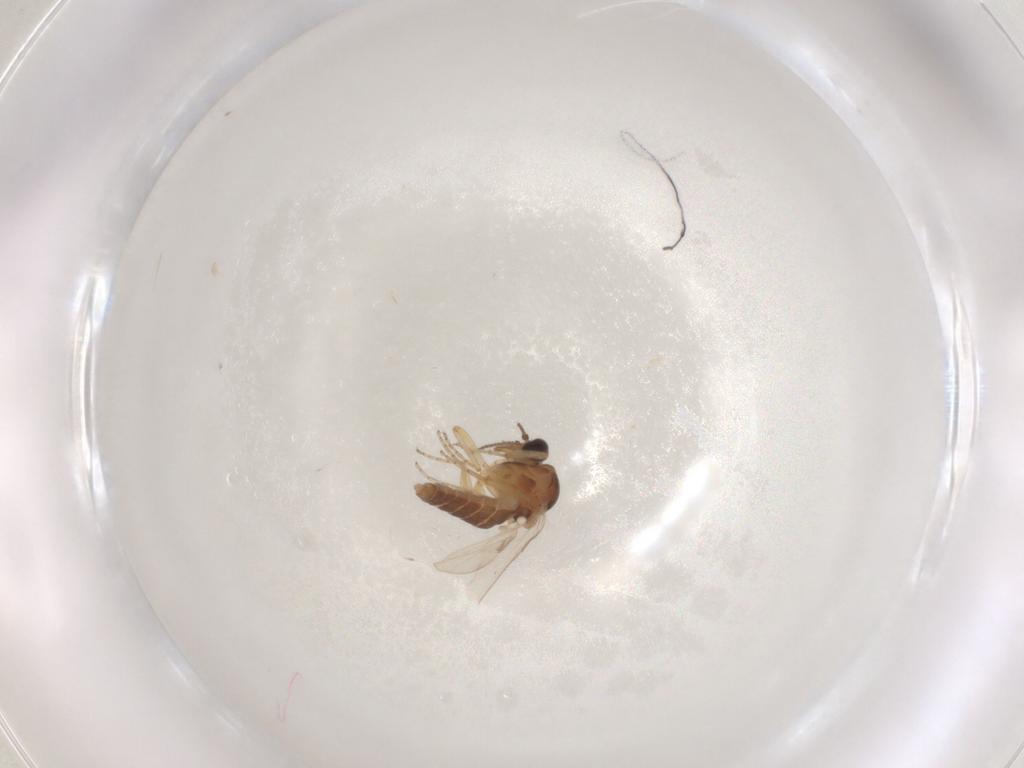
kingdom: Animalia
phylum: Arthropoda
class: Insecta
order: Diptera
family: Ceratopogonidae
